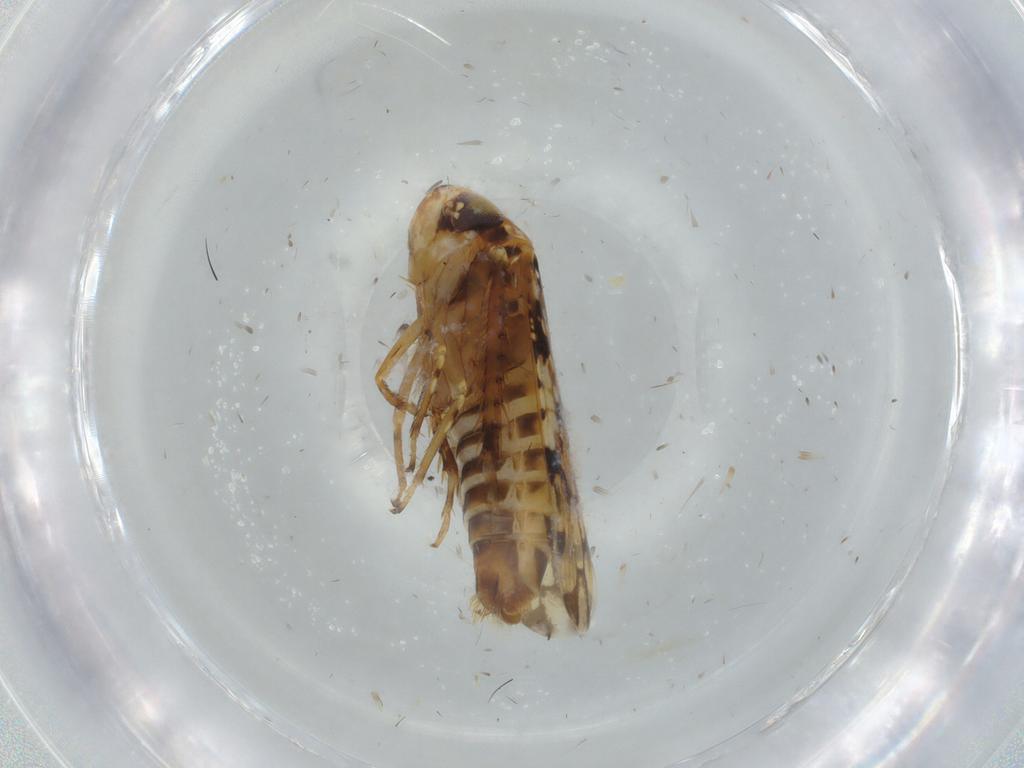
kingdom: Animalia
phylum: Arthropoda
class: Insecta
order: Hemiptera
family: Cicadellidae
